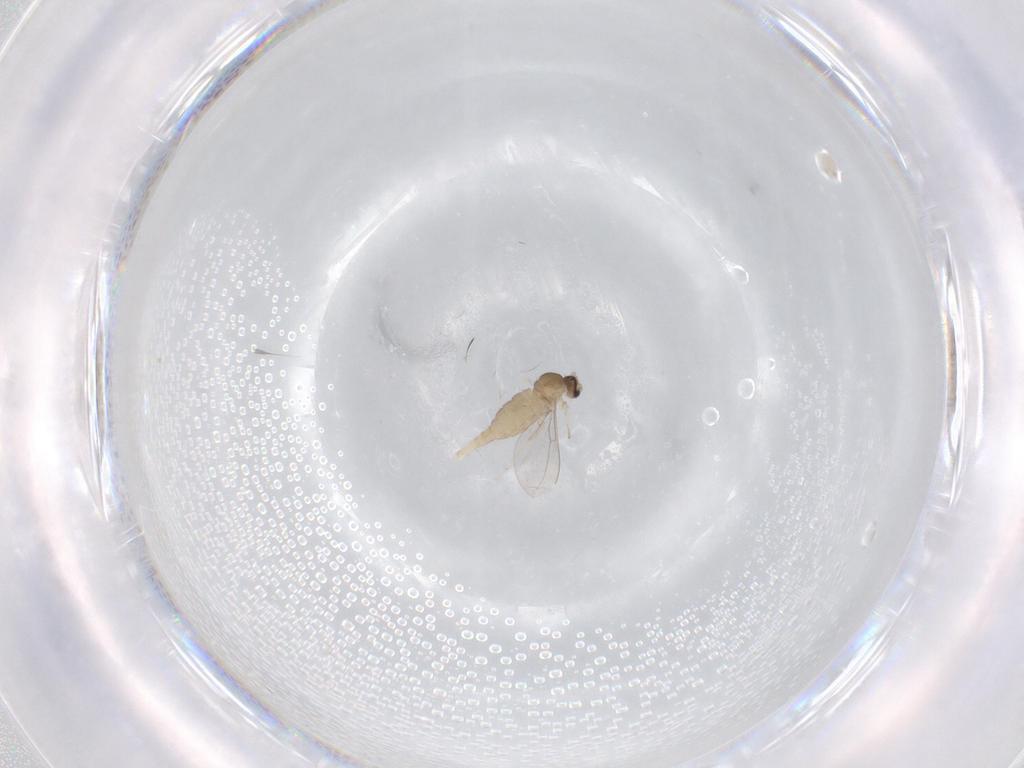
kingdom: Animalia
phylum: Arthropoda
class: Insecta
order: Diptera
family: Cecidomyiidae
